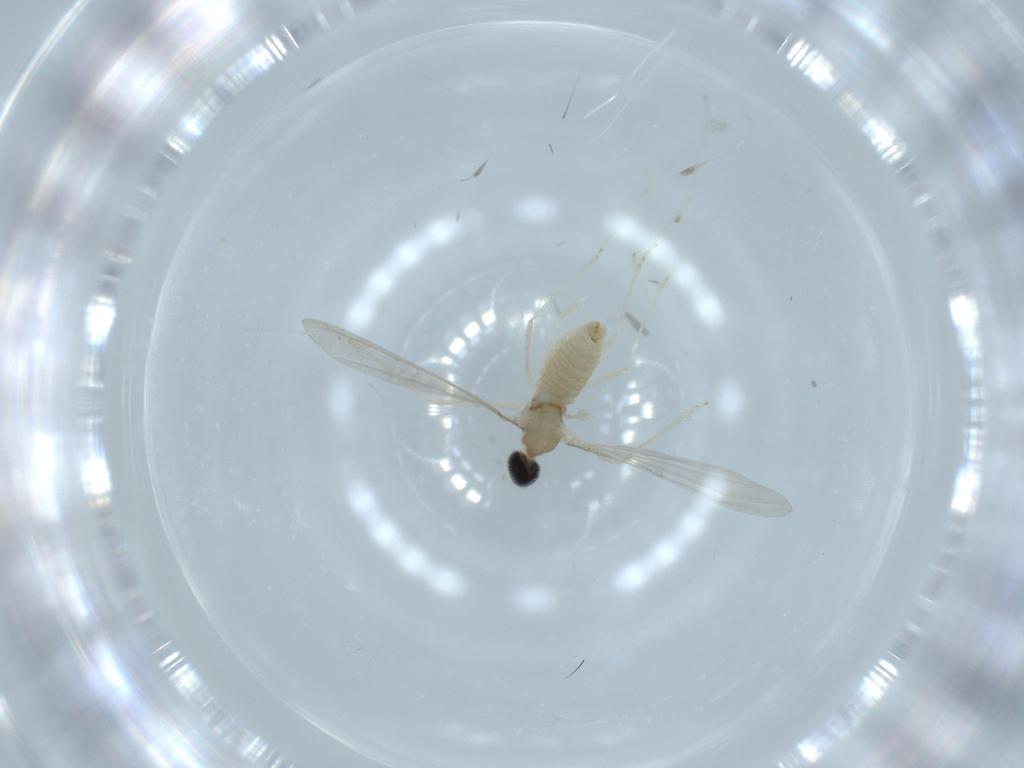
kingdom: Animalia
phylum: Arthropoda
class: Insecta
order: Diptera
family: Cecidomyiidae
